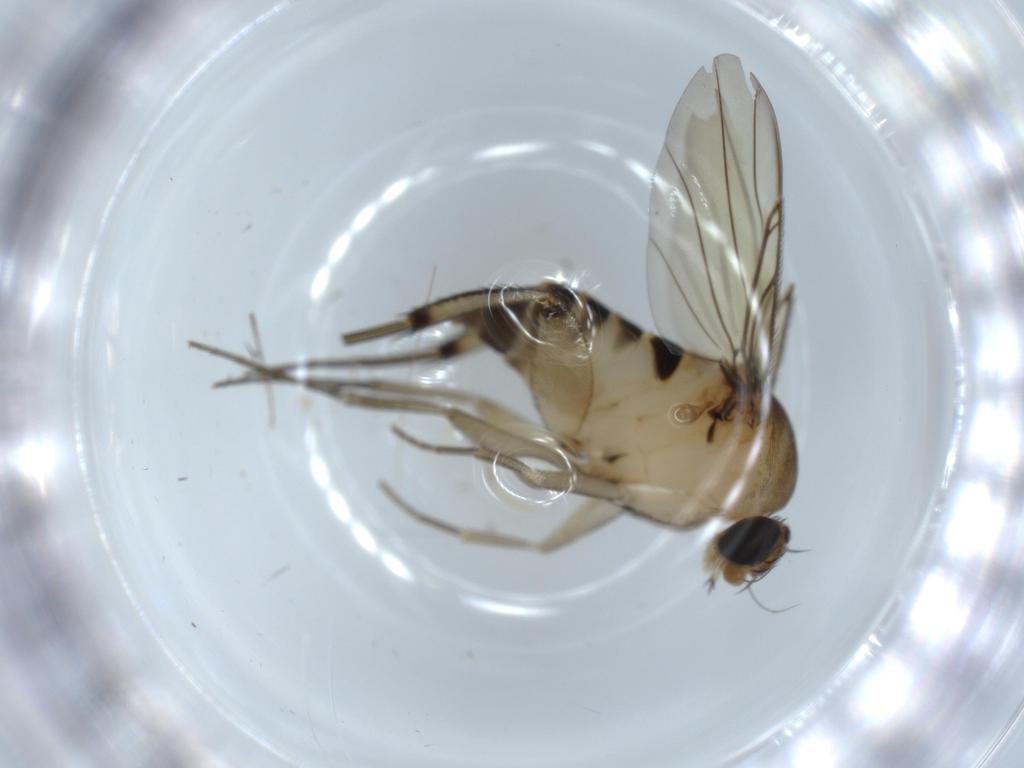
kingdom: Animalia
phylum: Arthropoda
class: Insecta
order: Diptera
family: Phoridae
